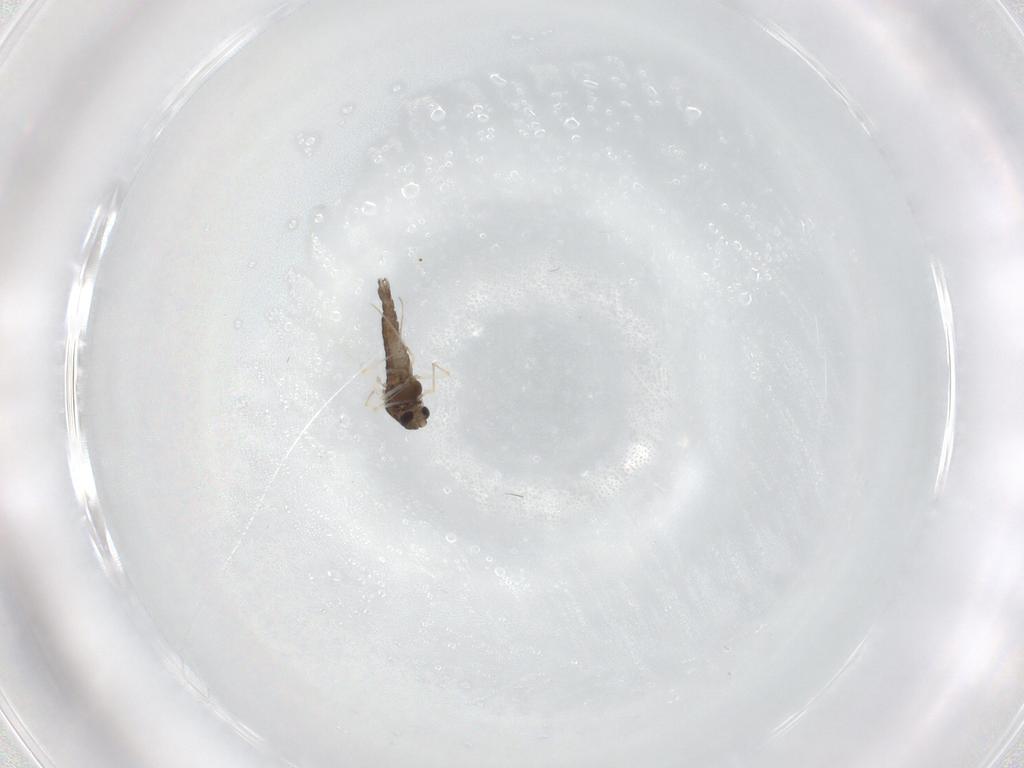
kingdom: Animalia
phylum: Arthropoda
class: Insecta
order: Diptera
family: Chironomidae
